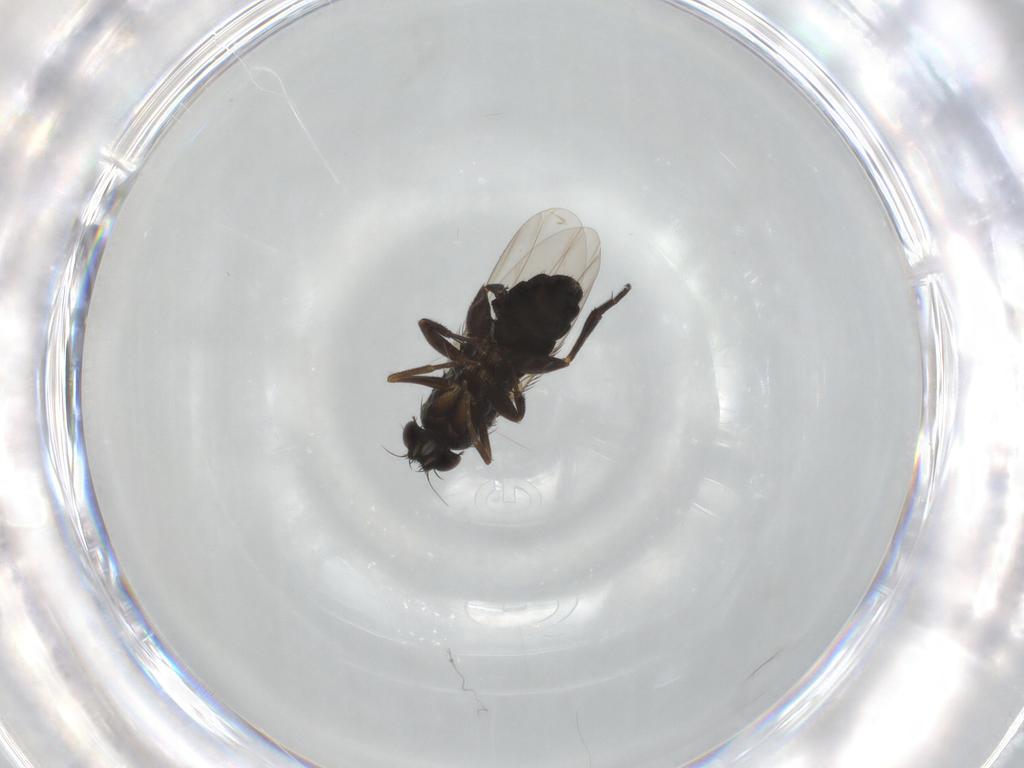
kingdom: Animalia
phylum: Arthropoda
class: Insecta
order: Diptera
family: Phoridae
